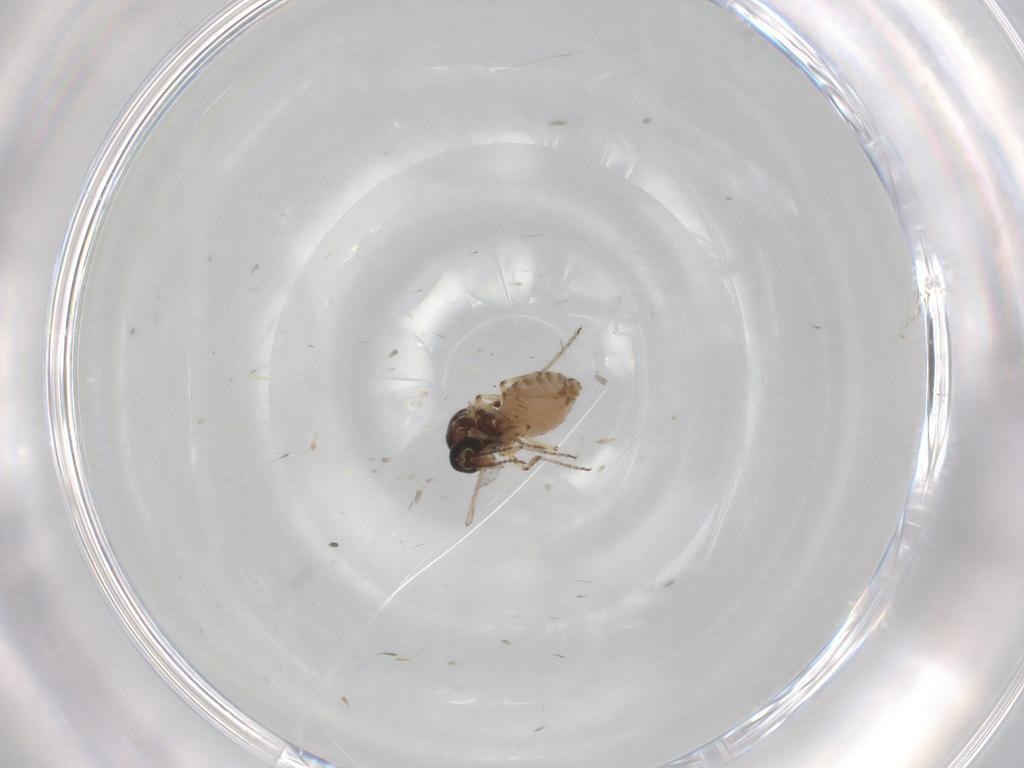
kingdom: Animalia
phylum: Arthropoda
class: Insecta
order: Diptera
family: Ceratopogonidae
